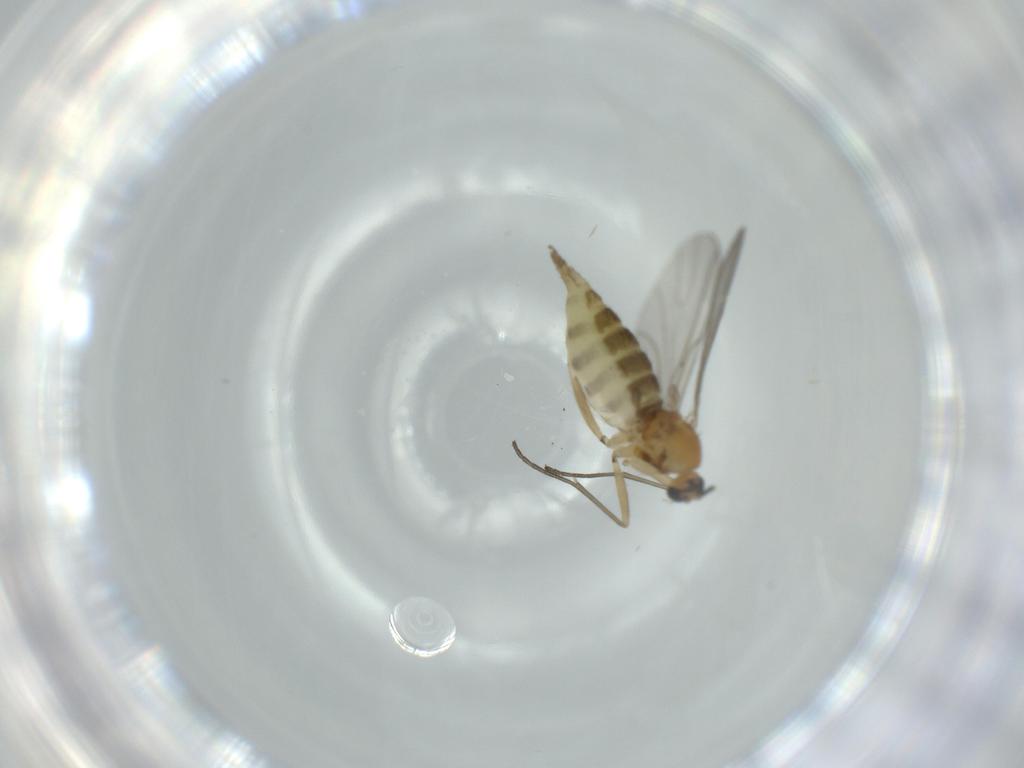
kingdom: Animalia
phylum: Arthropoda
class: Insecta
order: Diptera
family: Sciaridae
